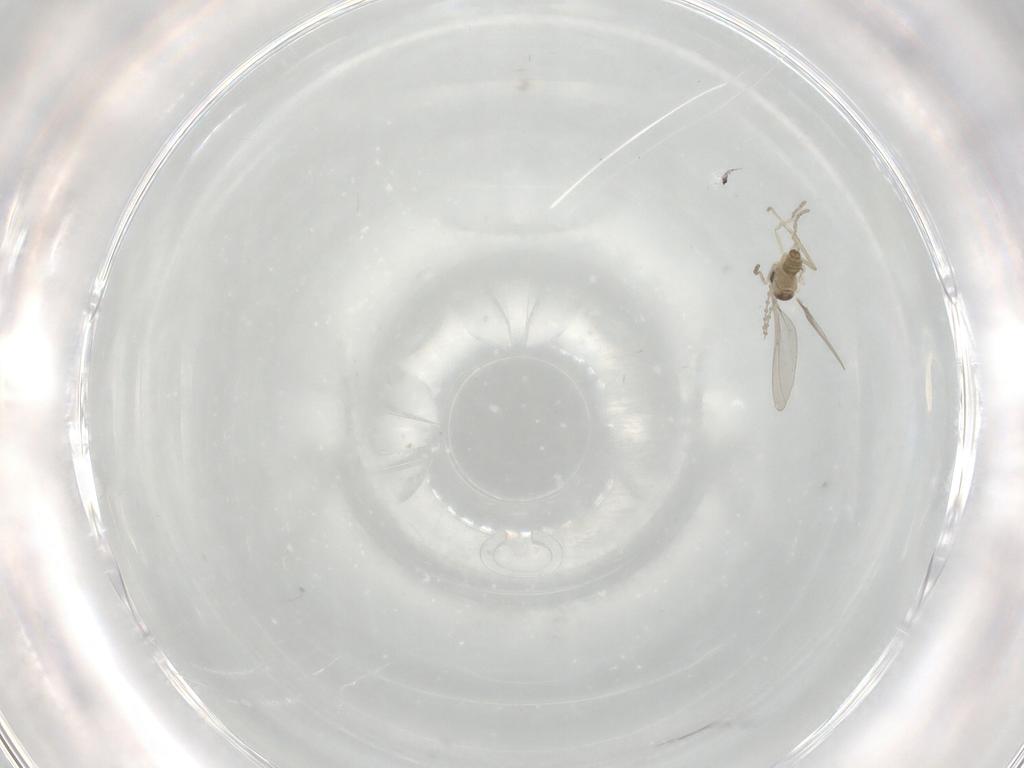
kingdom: Animalia
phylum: Arthropoda
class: Insecta
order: Diptera
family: Cecidomyiidae
